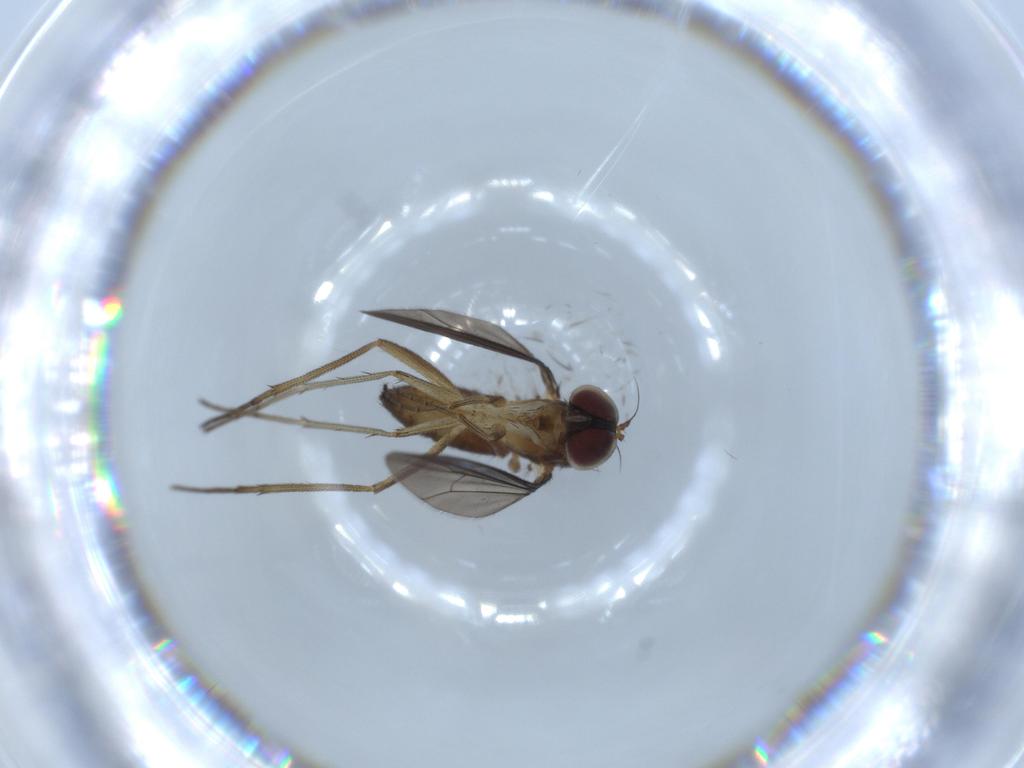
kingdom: Animalia
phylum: Arthropoda
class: Insecta
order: Diptera
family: Dolichopodidae
